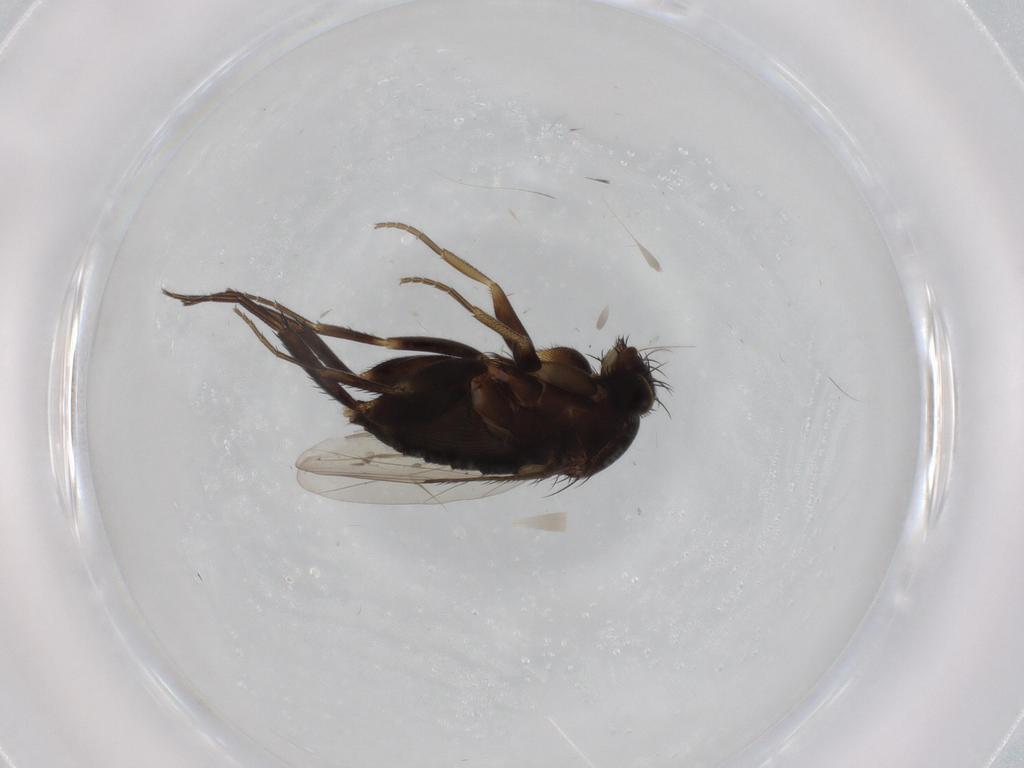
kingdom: Animalia
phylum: Arthropoda
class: Insecta
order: Diptera
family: Phoridae
